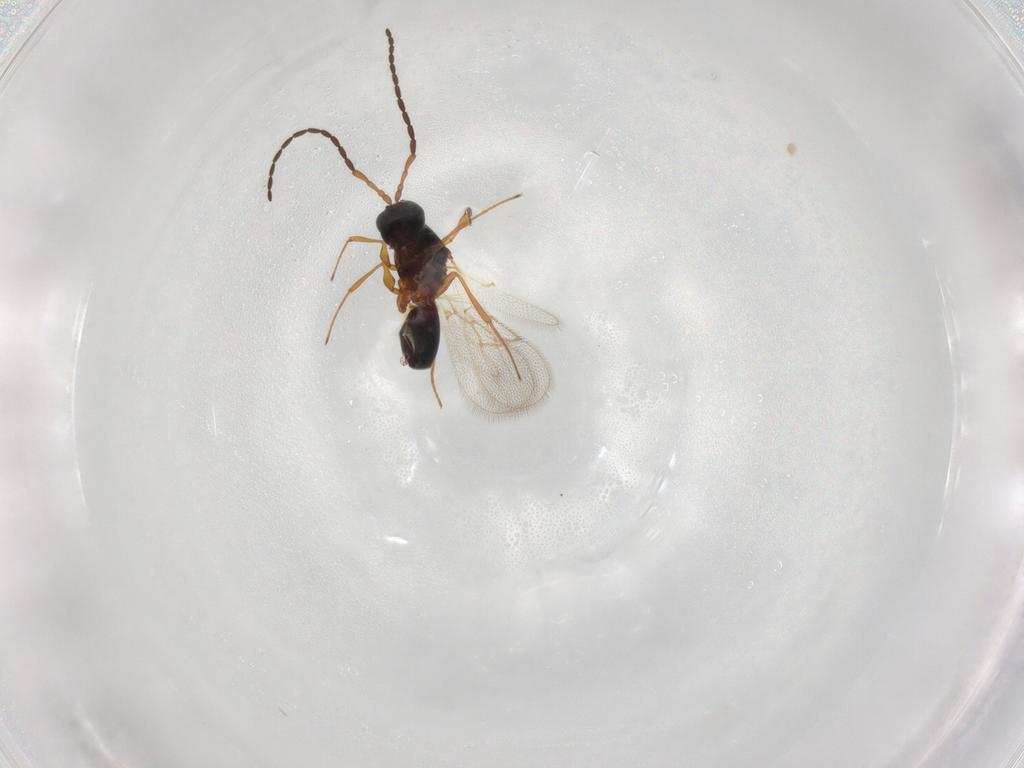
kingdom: Animalia
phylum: Arthropoda
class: Insecta
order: Hymenoptera
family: Figitidae
